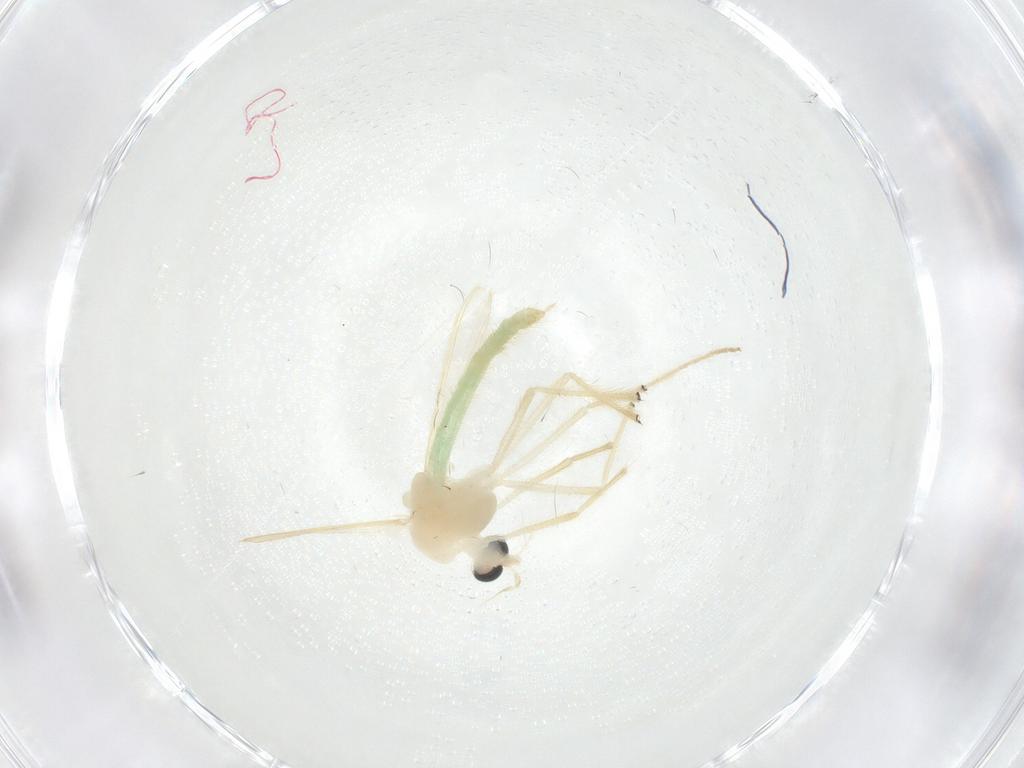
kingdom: Animalia
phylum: Arthropoda
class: Insecta
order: Diptera
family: Chironomidae
